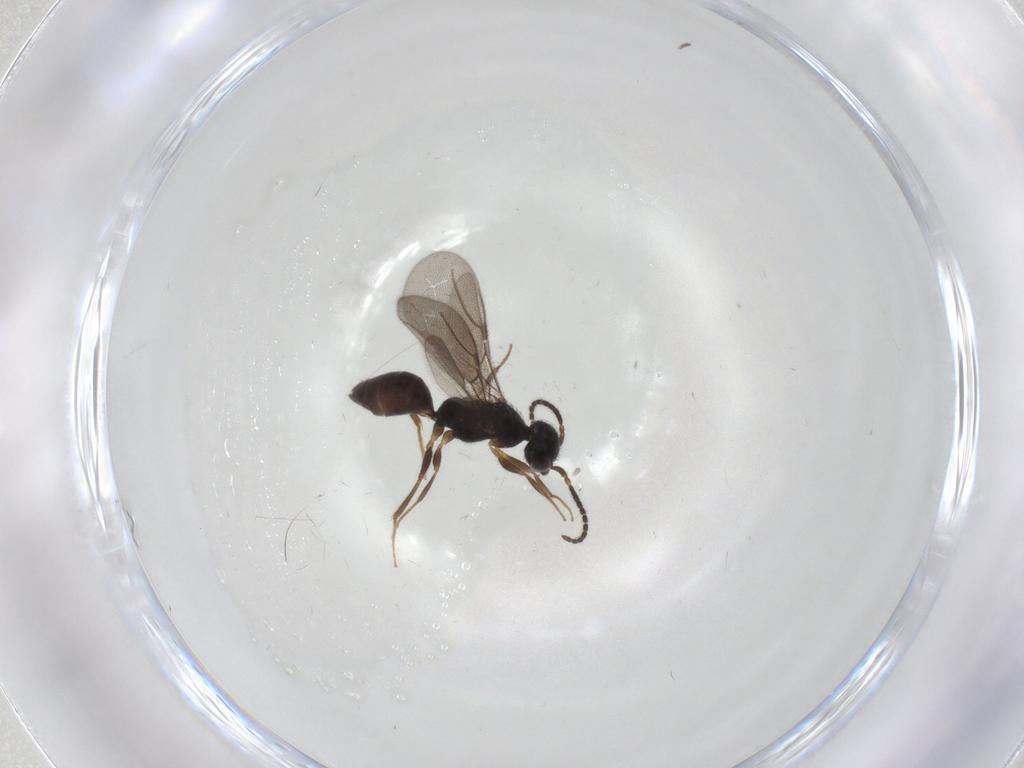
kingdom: Animalia
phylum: Arthropoda
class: Insecta
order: Hymenoptera
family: Bethylidae
